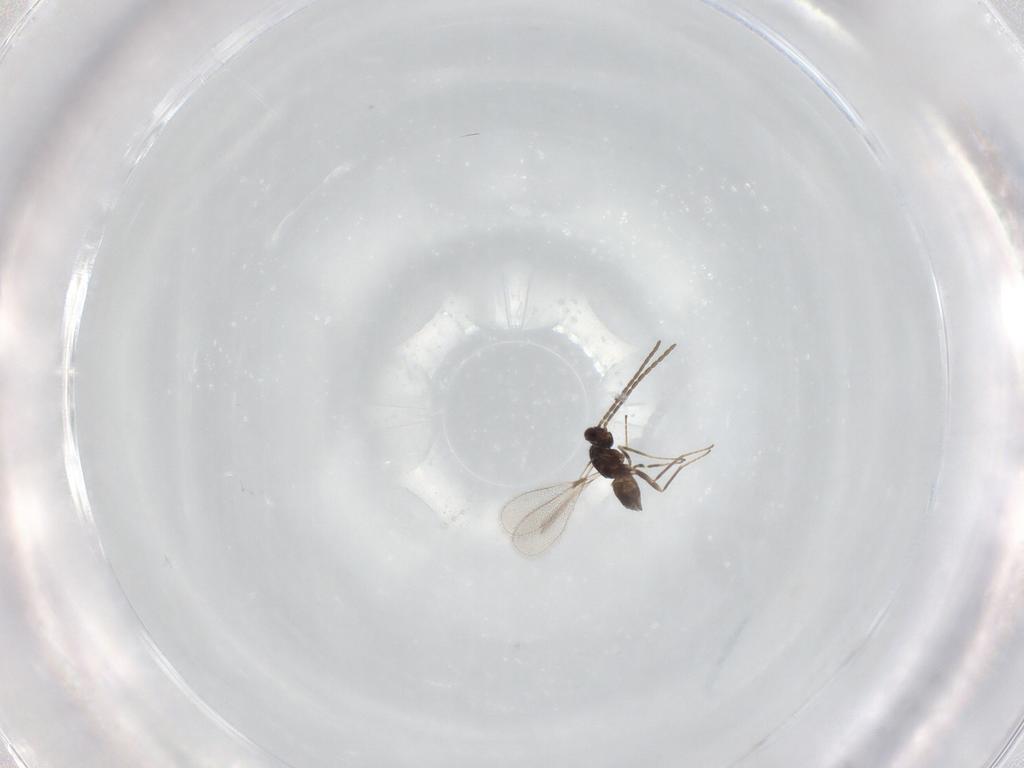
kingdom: Animalia
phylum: Arthropoda
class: Insecta
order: Hymenoptera
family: Mymaridae
